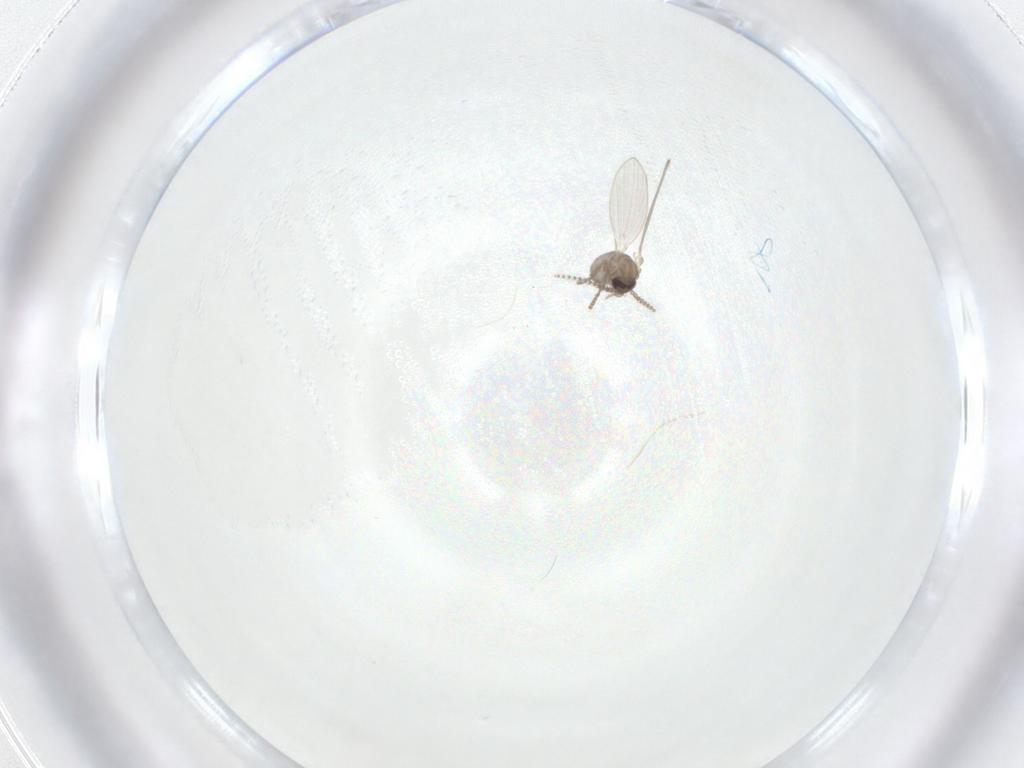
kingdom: Animalia
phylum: Arthropoda
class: Insecta
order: Diptera
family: Psychodidae
